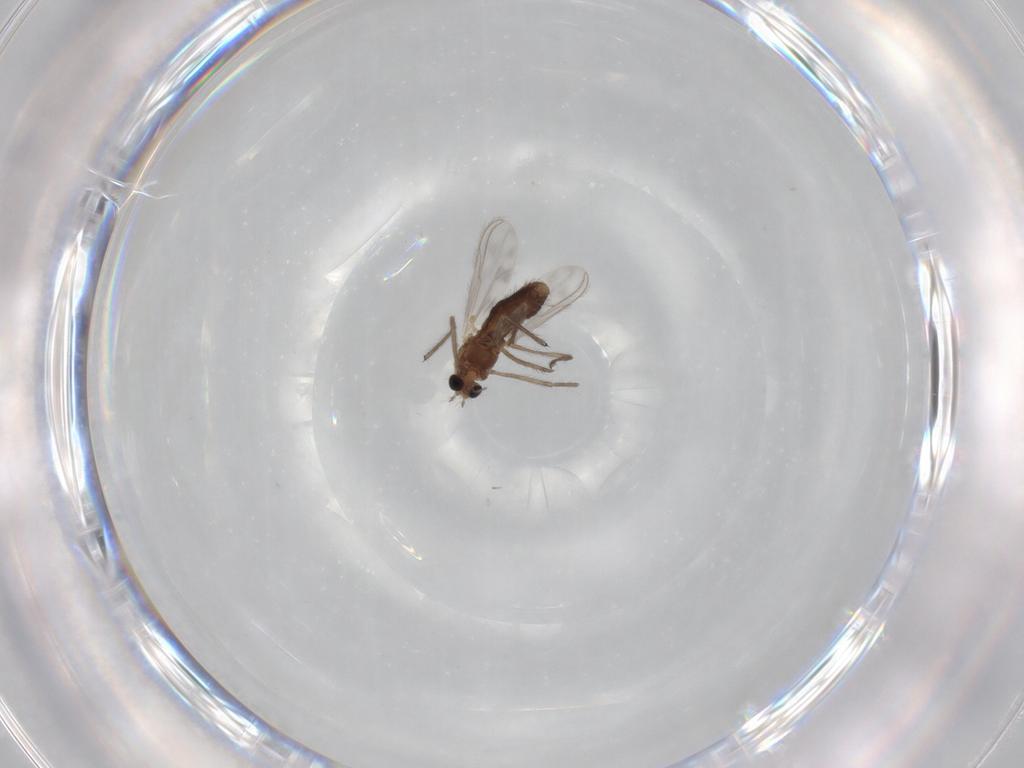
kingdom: Animalia
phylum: Arthropoda
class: Insecta
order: Diptera
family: Chironomidae
